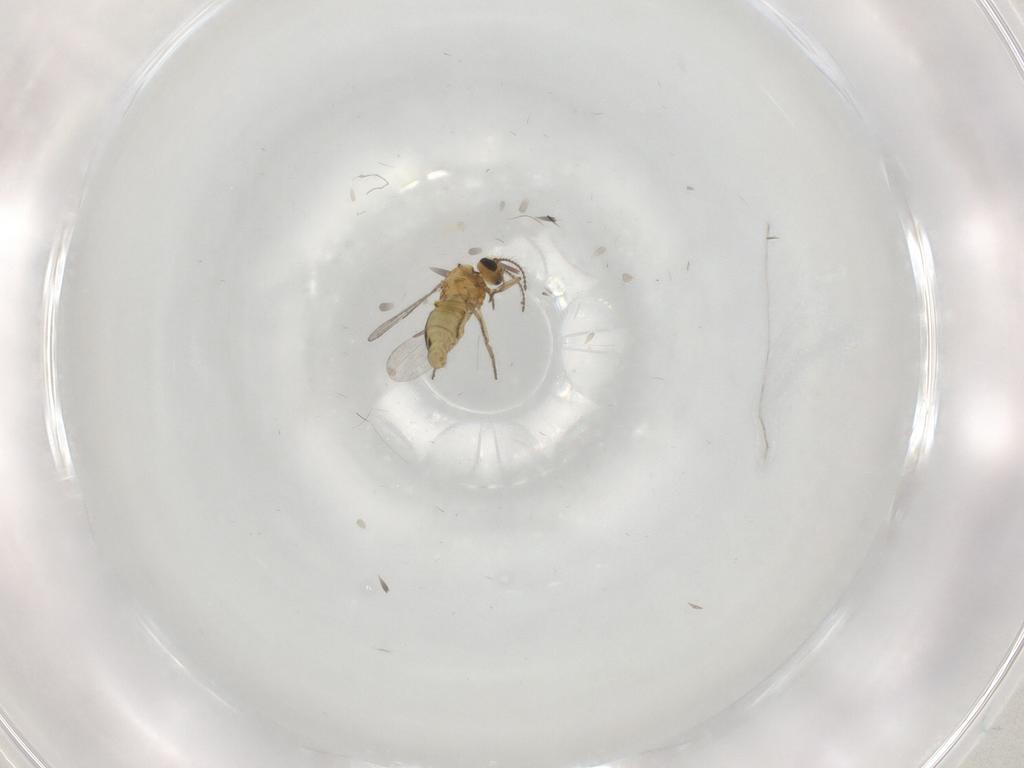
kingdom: Animalia
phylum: Arthropoda
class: Insecta
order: Diptera
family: Ceratopogonidae
